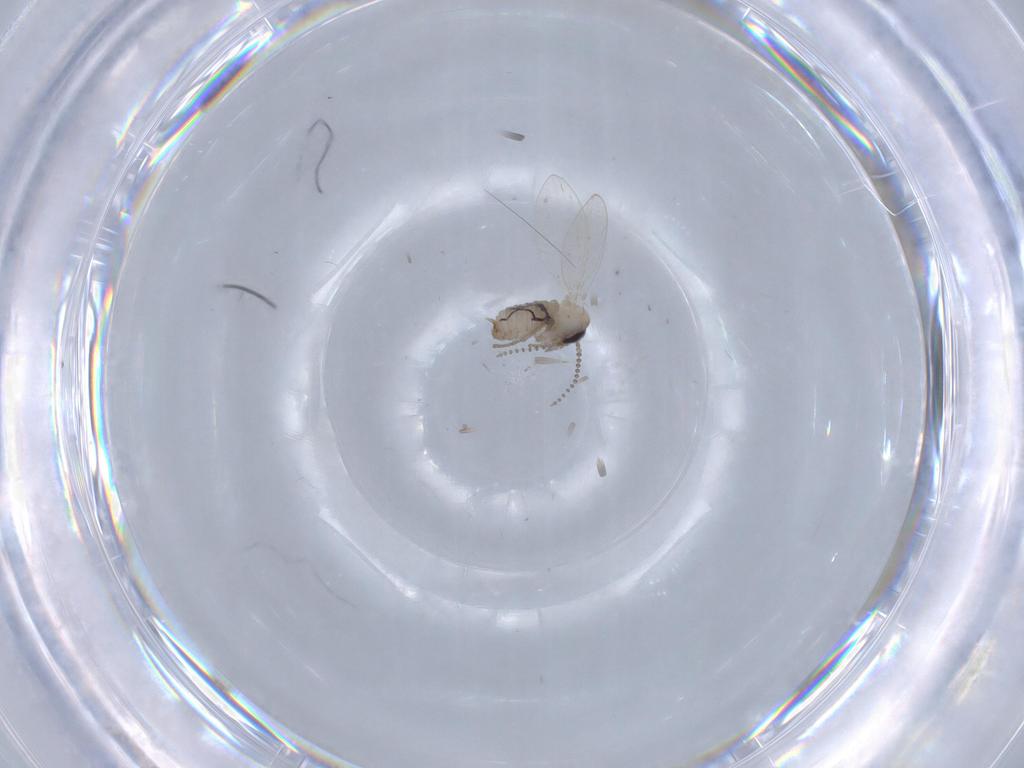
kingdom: Animalia
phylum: Arthropoda
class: Insecta
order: Diptera
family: Psychodidae
